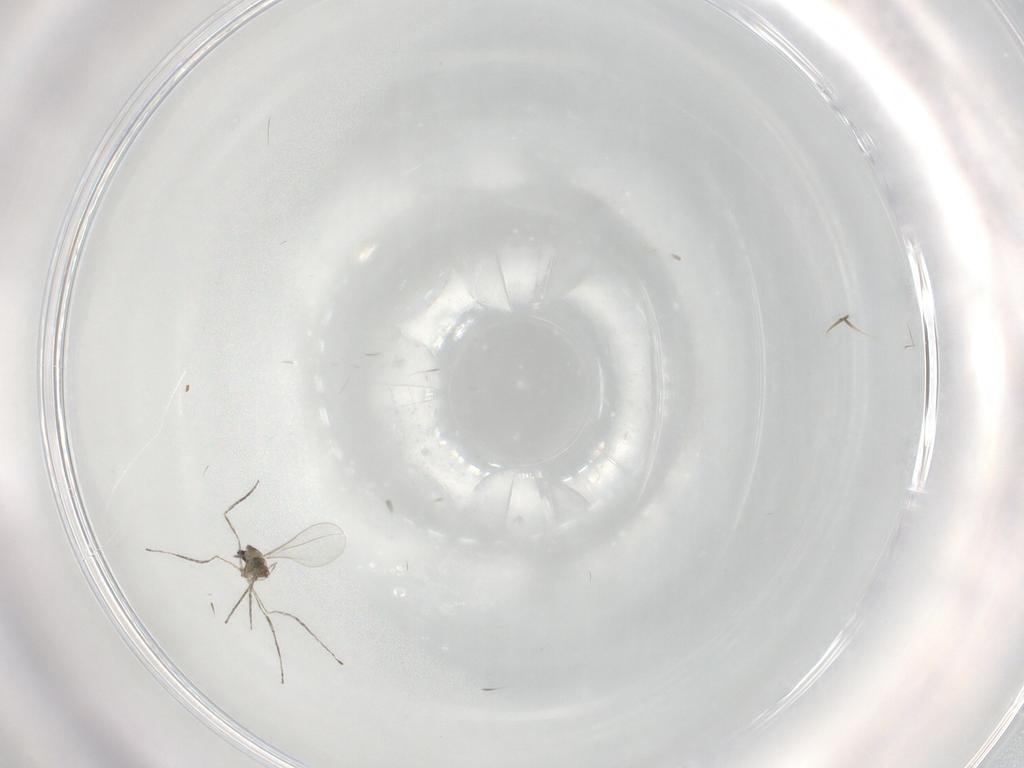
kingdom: Animalia
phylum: Arthropoda
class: Insecta
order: Diptera
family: Cecidomyiidae
